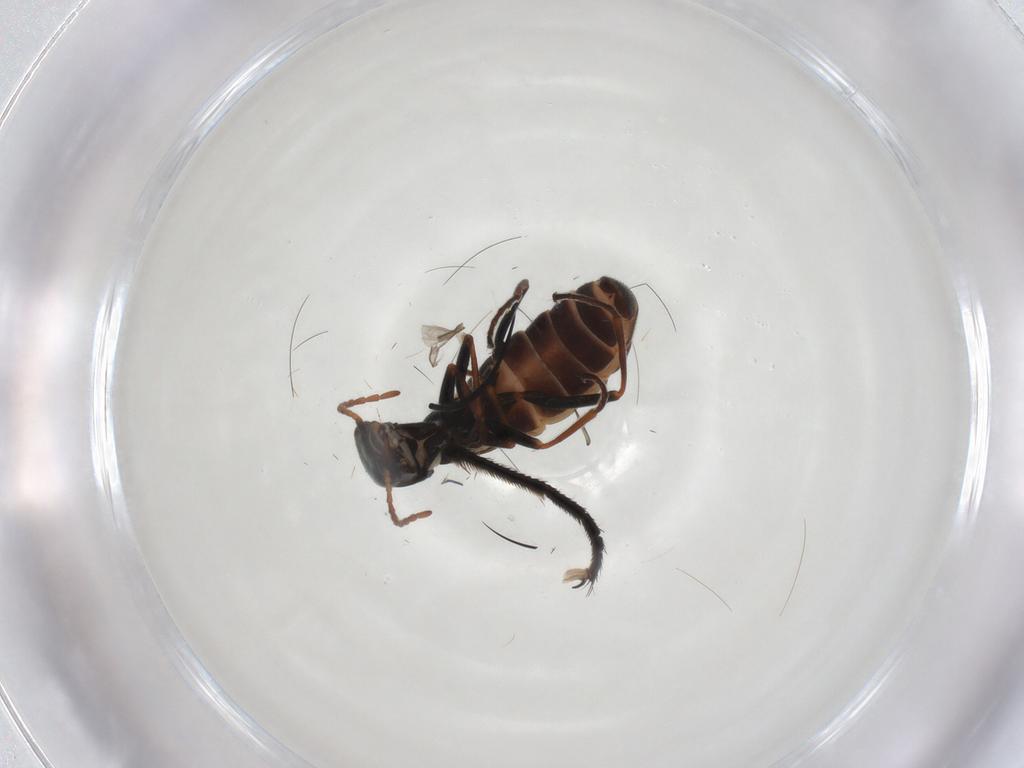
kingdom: Animalia
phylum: Arthropoda
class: Insecta
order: Coleoptera
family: Melyridae
